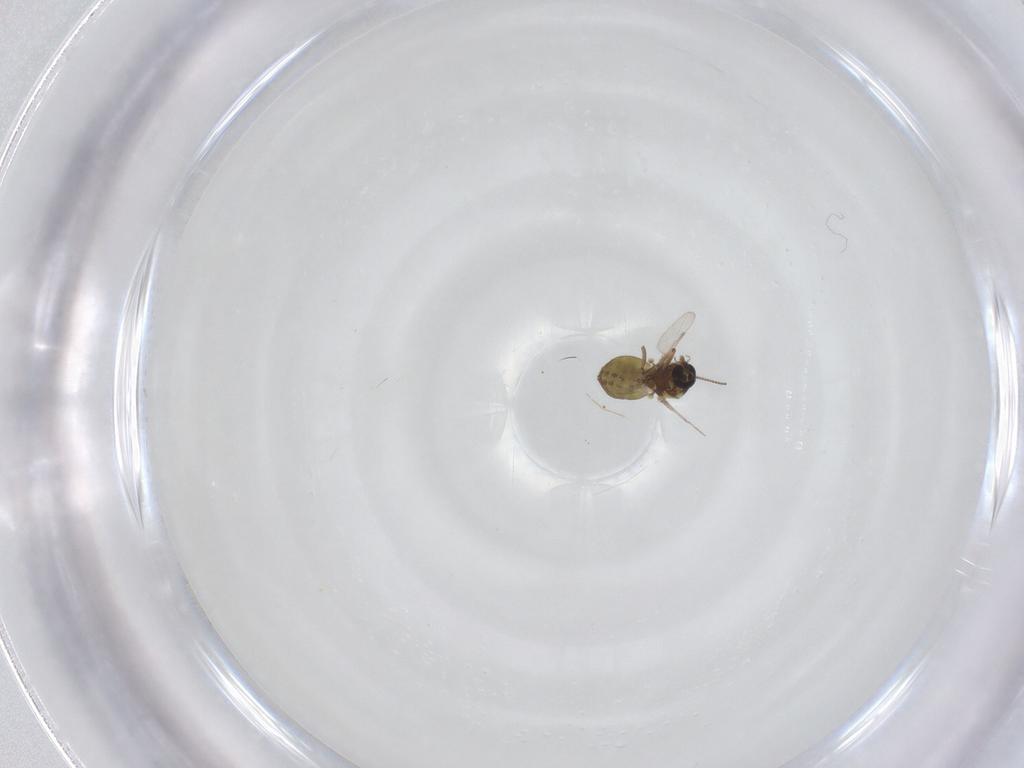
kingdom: Animalia
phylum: Arthropoda
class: Insecta
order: Diptera
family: Ceratopogonidae
